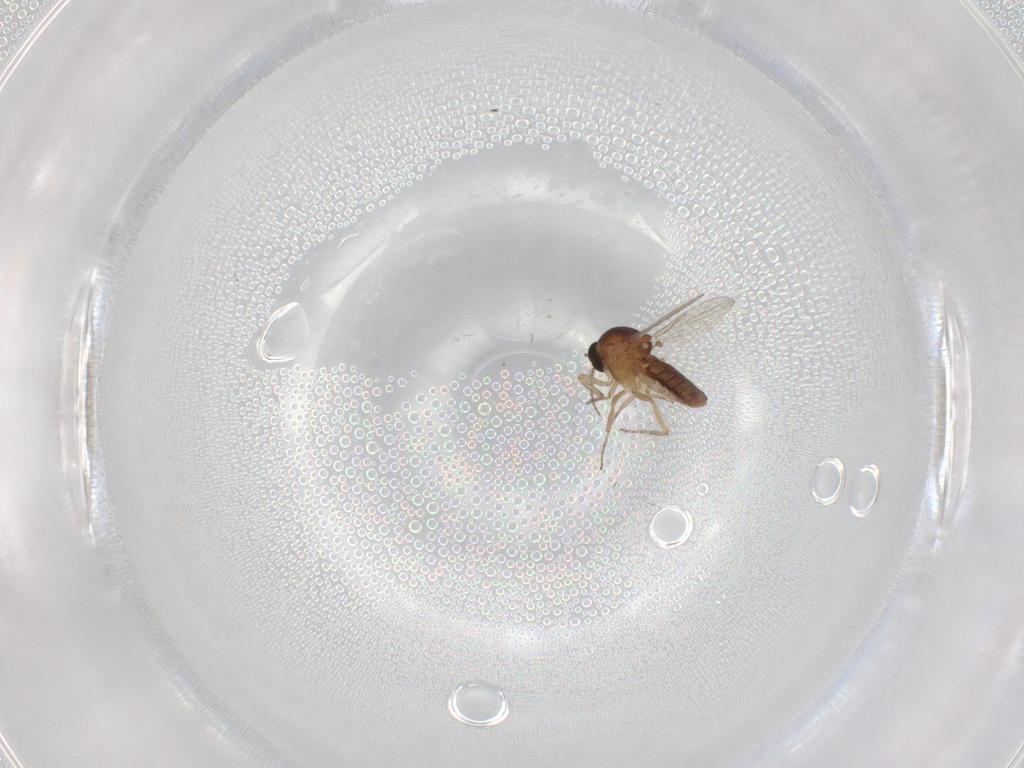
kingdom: Animalia
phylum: Arthropoda
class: Insecta
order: Diptera
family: Ceratopogonidae
